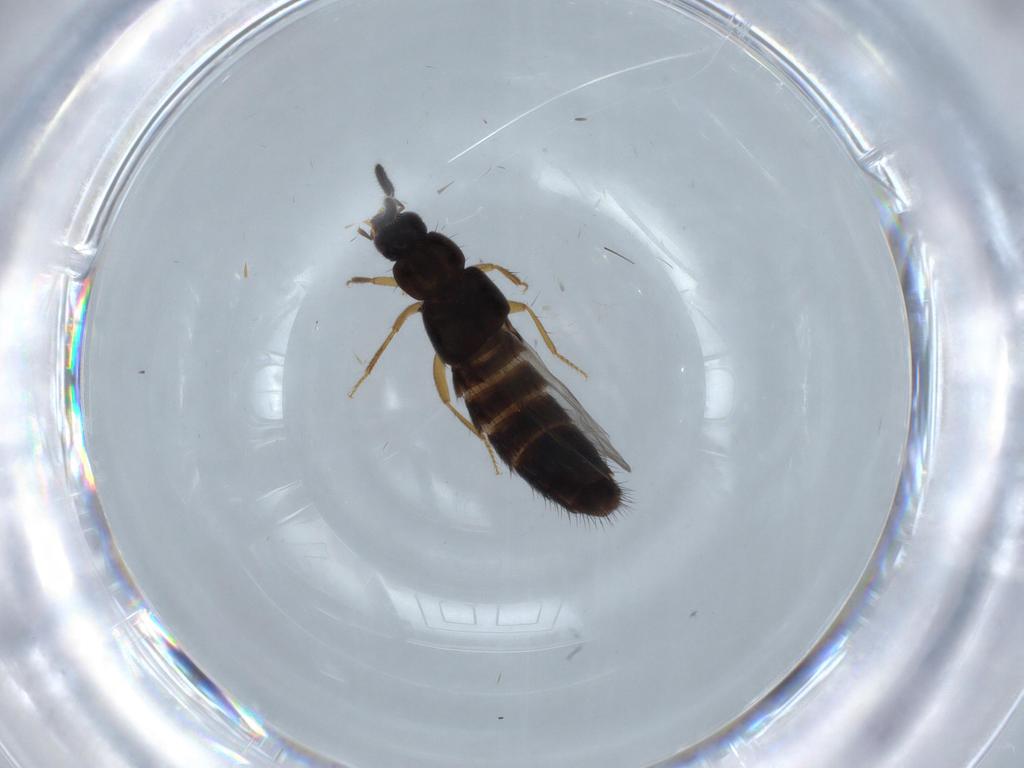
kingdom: Animalia
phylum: Arthropoda
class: Insecta
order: Coleoptera
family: Staphylinidae
